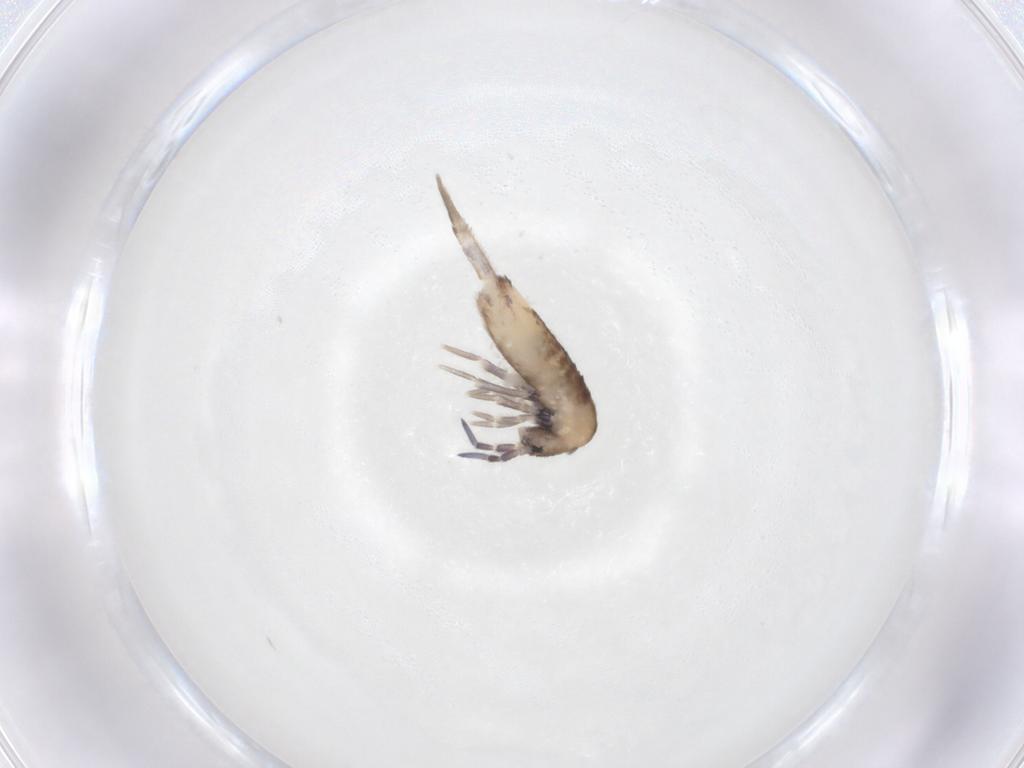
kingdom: Animalia
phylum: Arthropoda
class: Collembola
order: Entomobryomorpha
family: Entomobryidae
